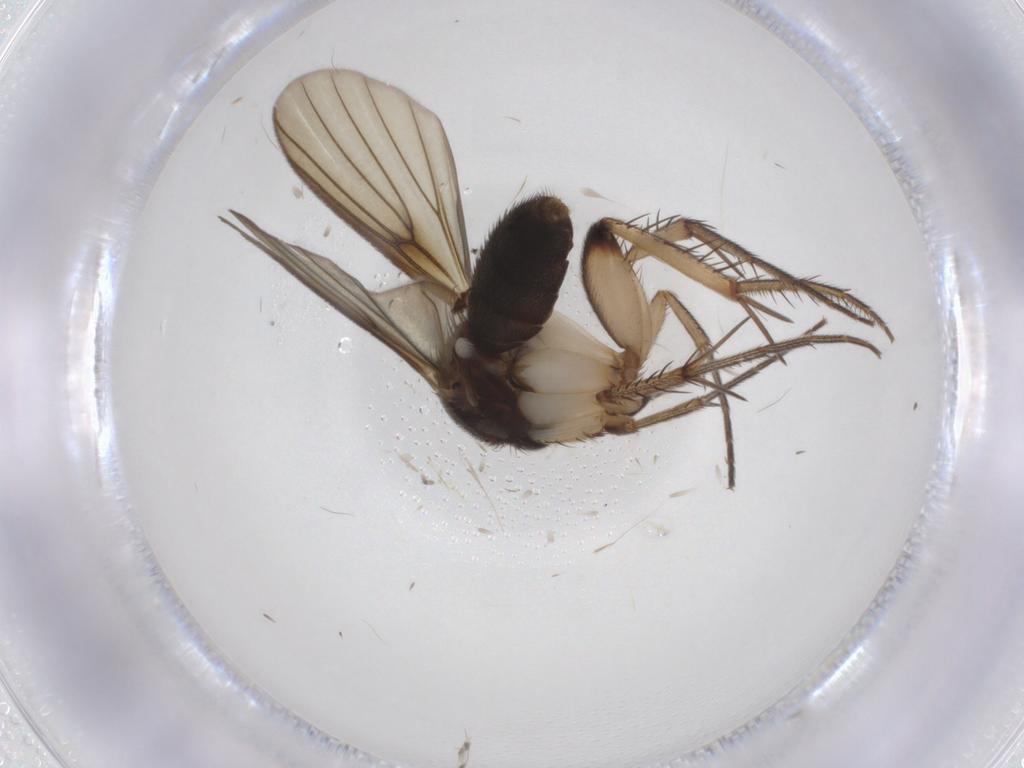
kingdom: Animalia
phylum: Arthropoda
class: Insecta
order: Diptera
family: Mycetophilidae
